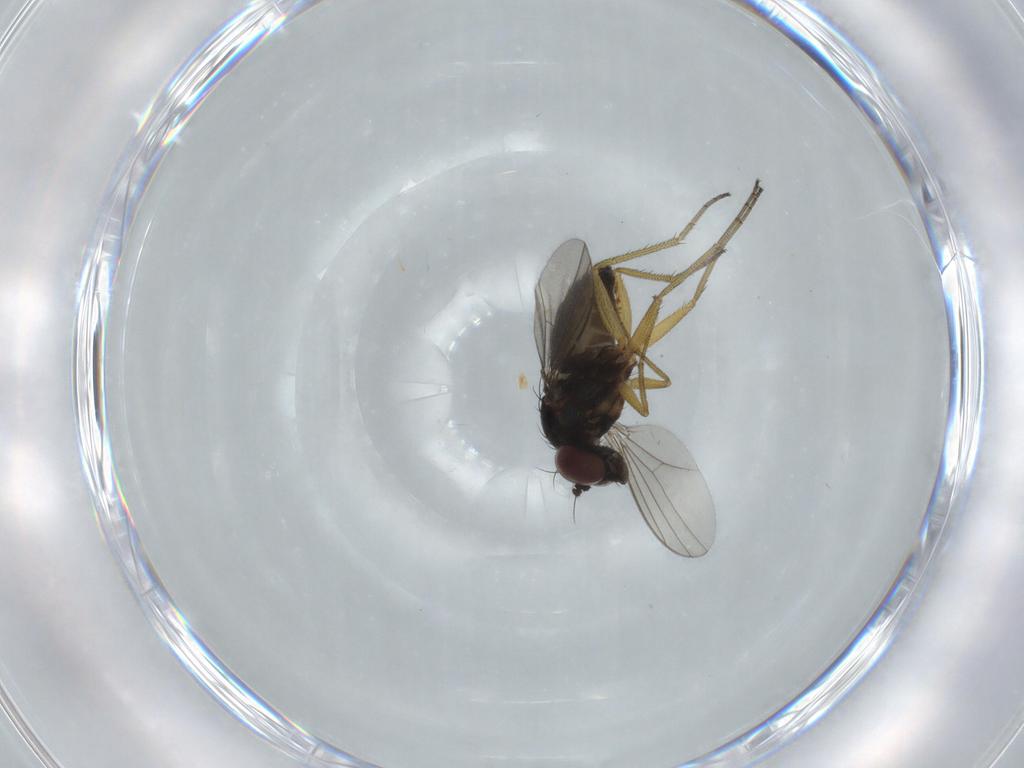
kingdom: Animalia
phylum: Arthropoda
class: Insecta
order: Diptera
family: Dolichopodidae
